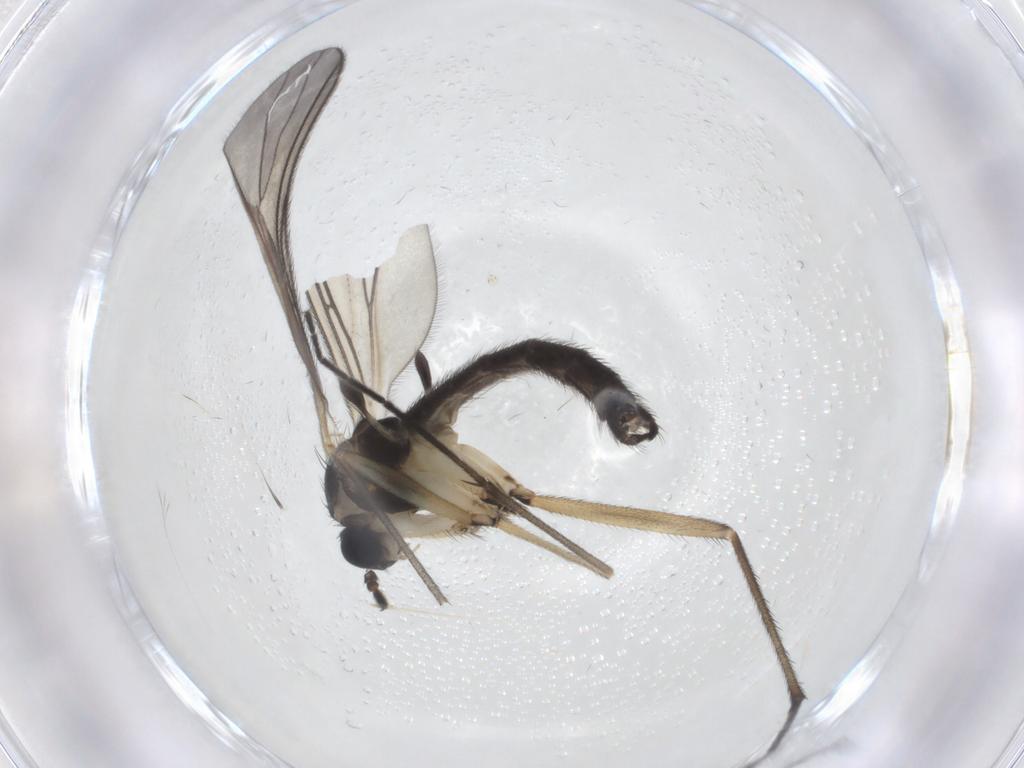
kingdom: Animalia
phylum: Arthropoda
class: Insecta
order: Diptera
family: Sciaridae
